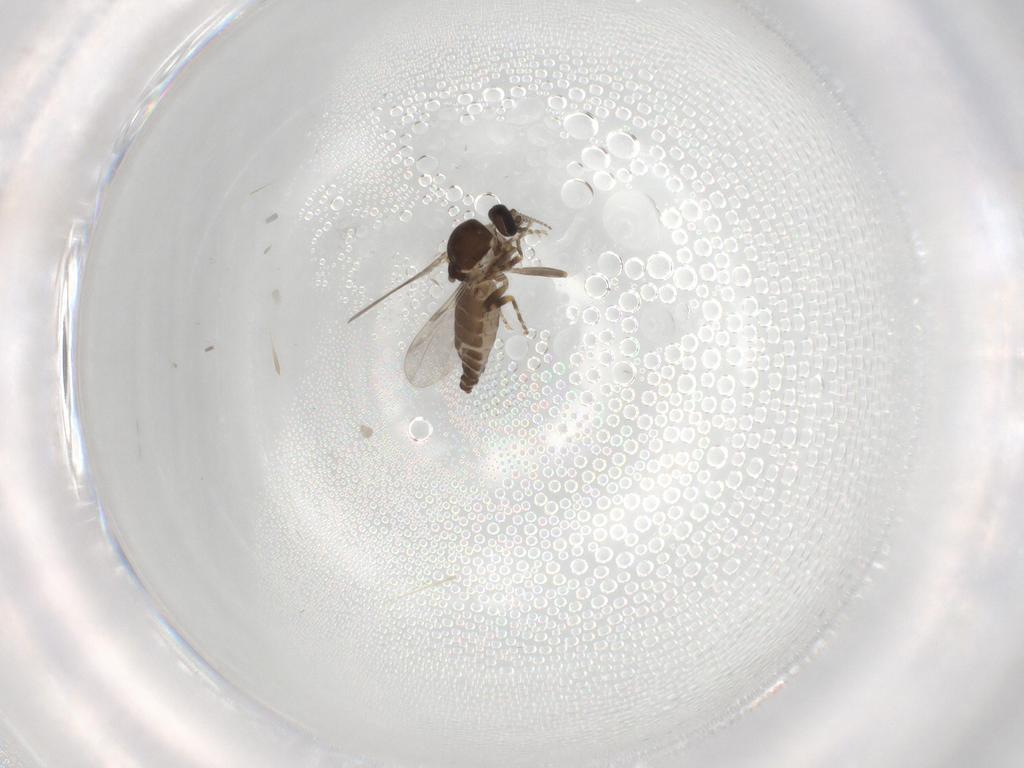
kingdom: Animalia
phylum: Arthropoda
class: Insecta
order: Diptera
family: Ceratopogonidae
